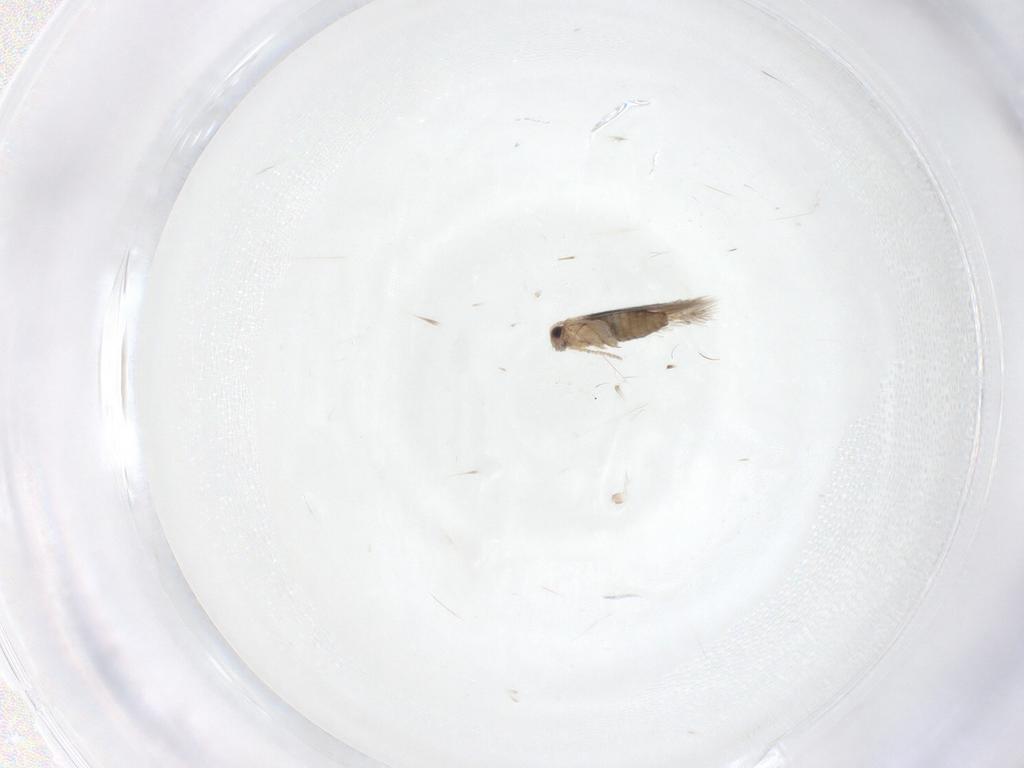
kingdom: Animalia
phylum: Arthropoda
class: Insecta
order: Lepidoptera
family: Nepticulidae
